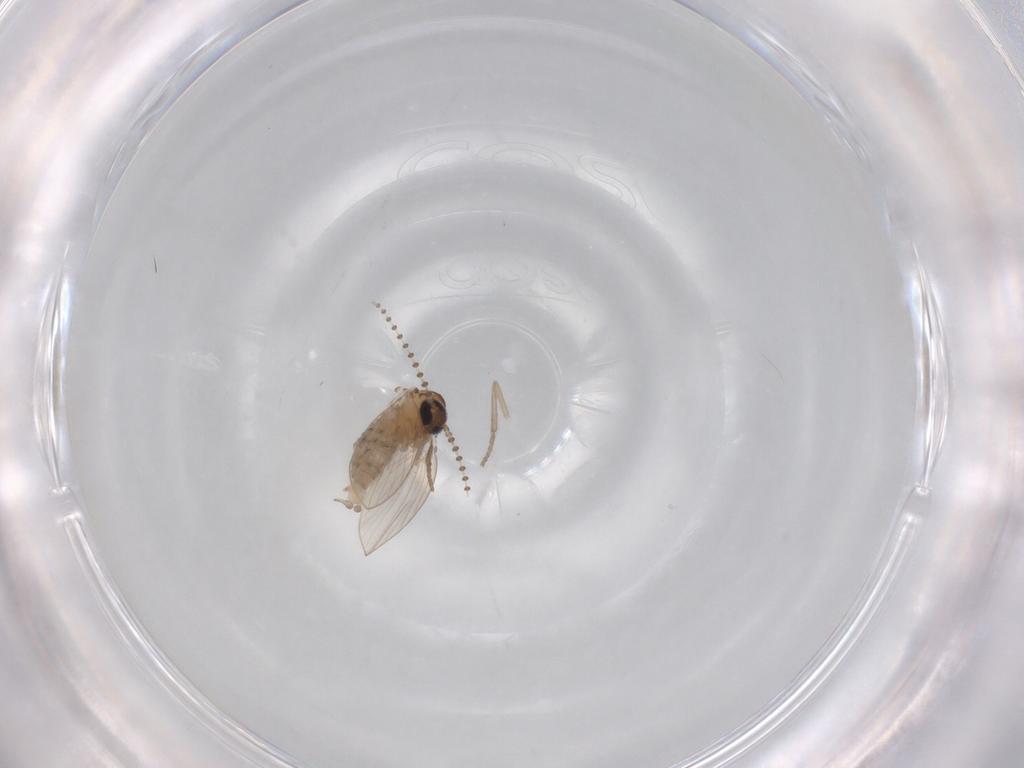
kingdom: Animalia
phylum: Arthropoda
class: Insecta
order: Diptera
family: Psychodidae
